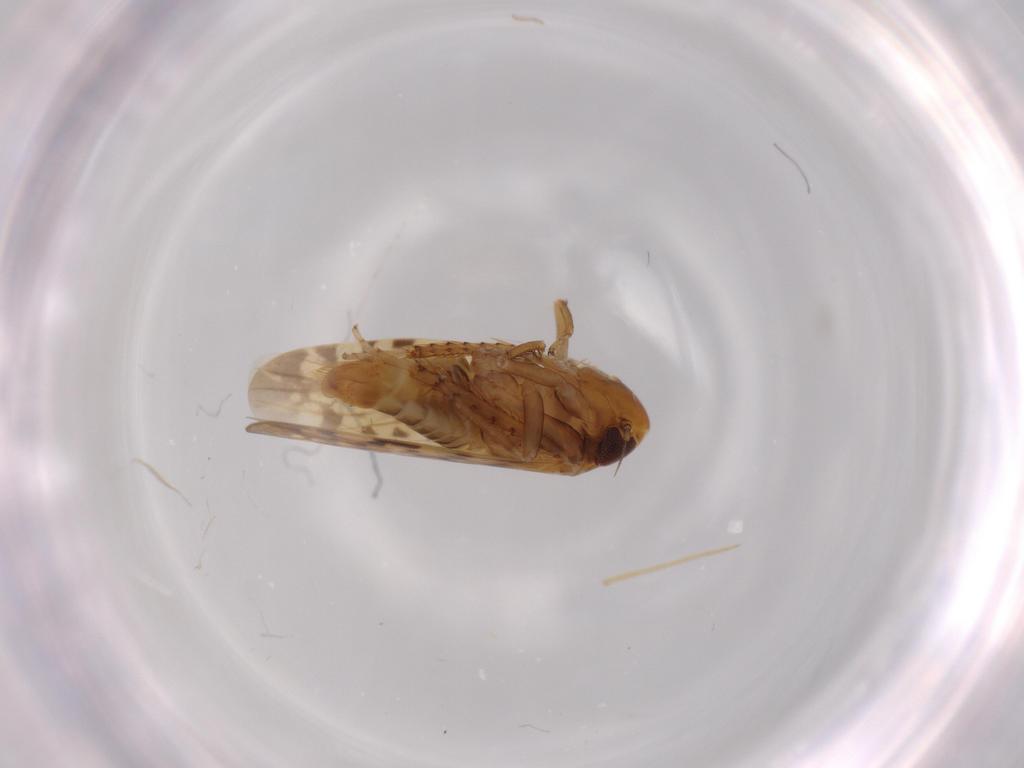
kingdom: Animalia
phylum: Arthropoda
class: Insecta
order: Hemiptera
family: Cicadellidae
